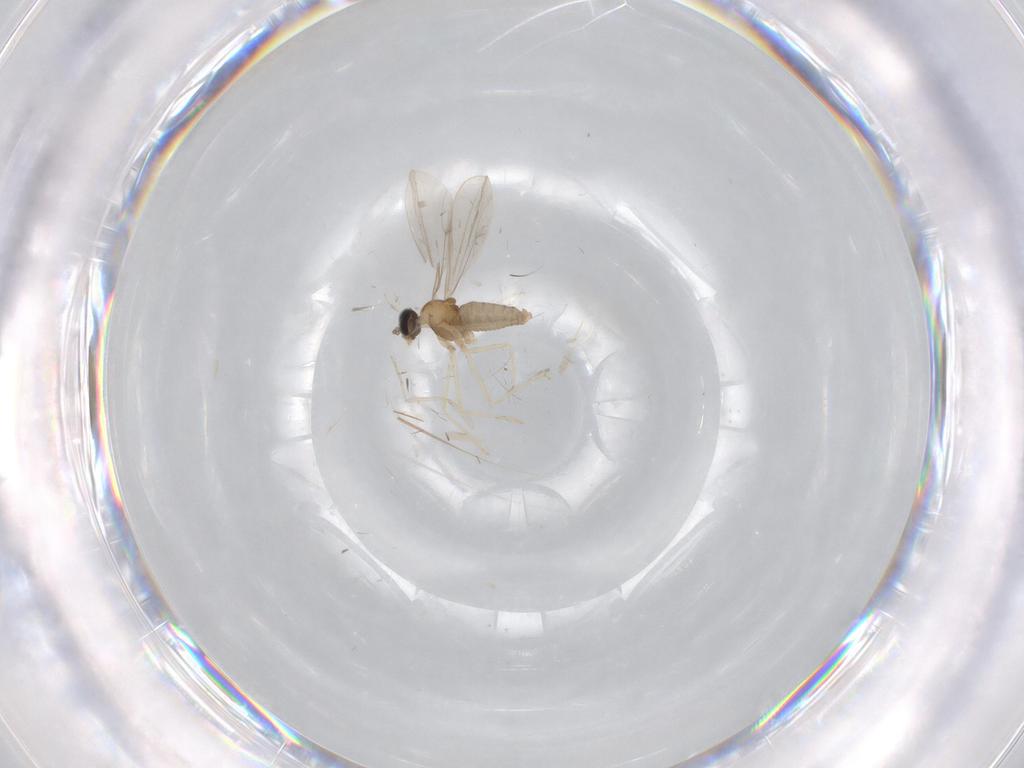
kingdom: Animalia
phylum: Arthropoda
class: Insecta
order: Diptera
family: Cecidomyiidae
